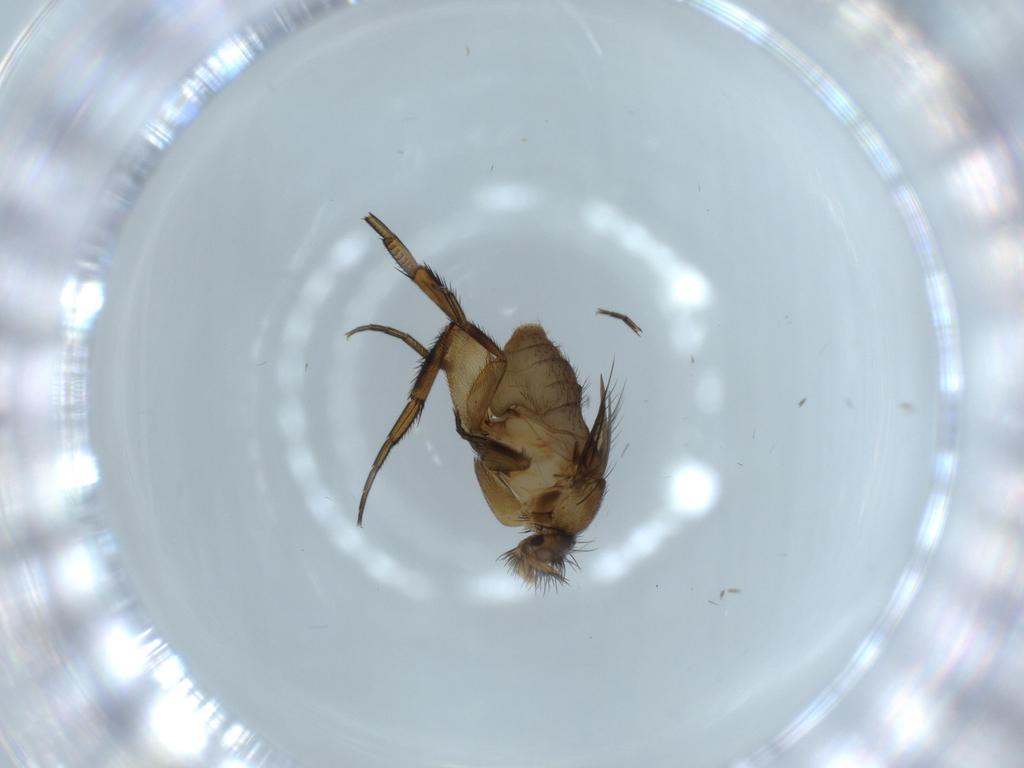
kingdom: Animalia
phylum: Arthropoda
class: Insecta
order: Diptera
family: Phoridae
